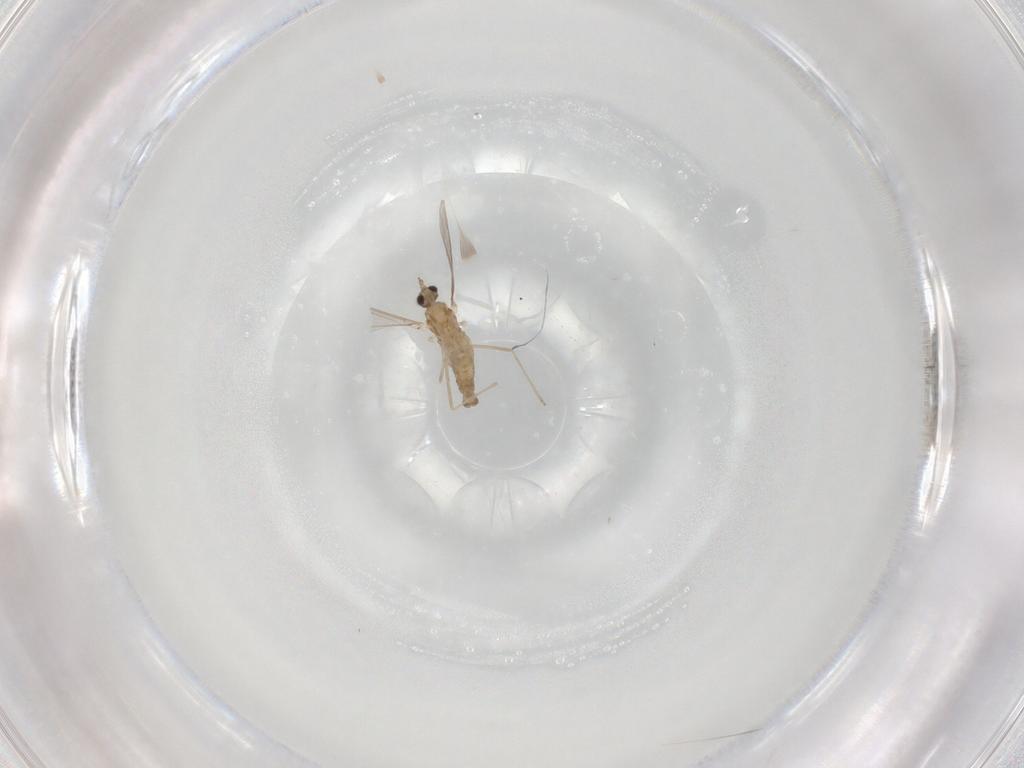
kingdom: Animalia
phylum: Arthropoda
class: Insecta
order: Diptera
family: Cecidomyiidae
